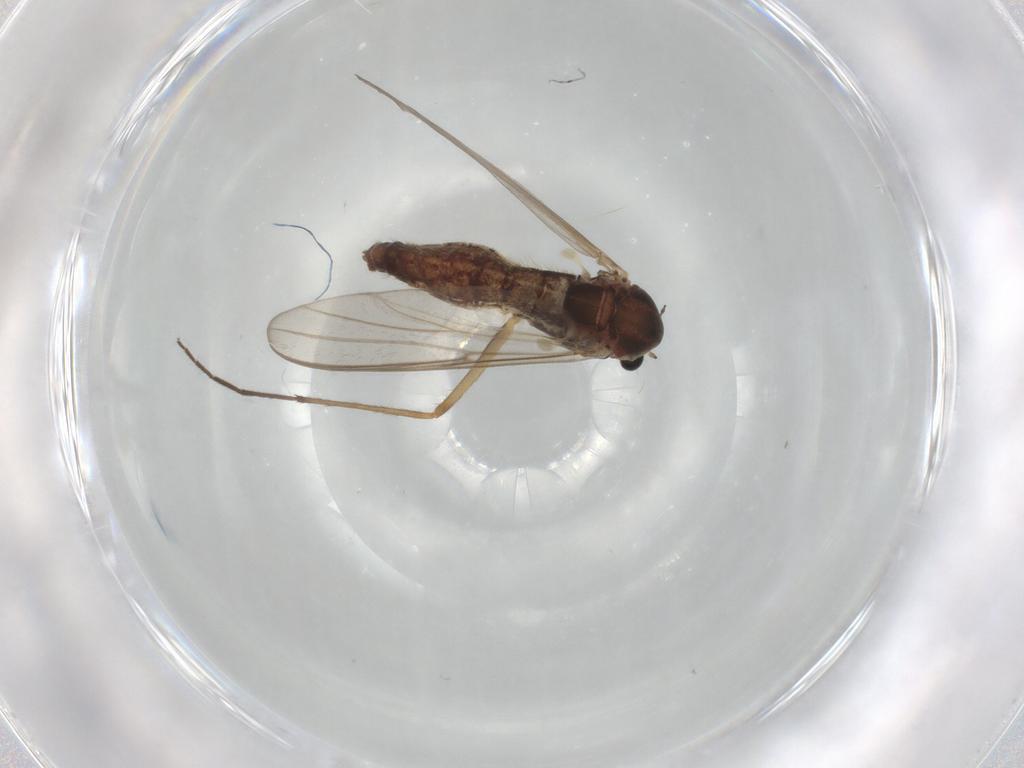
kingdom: Animalia
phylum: Arthropoda
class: Insecta
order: Diptera
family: Chironomidae
